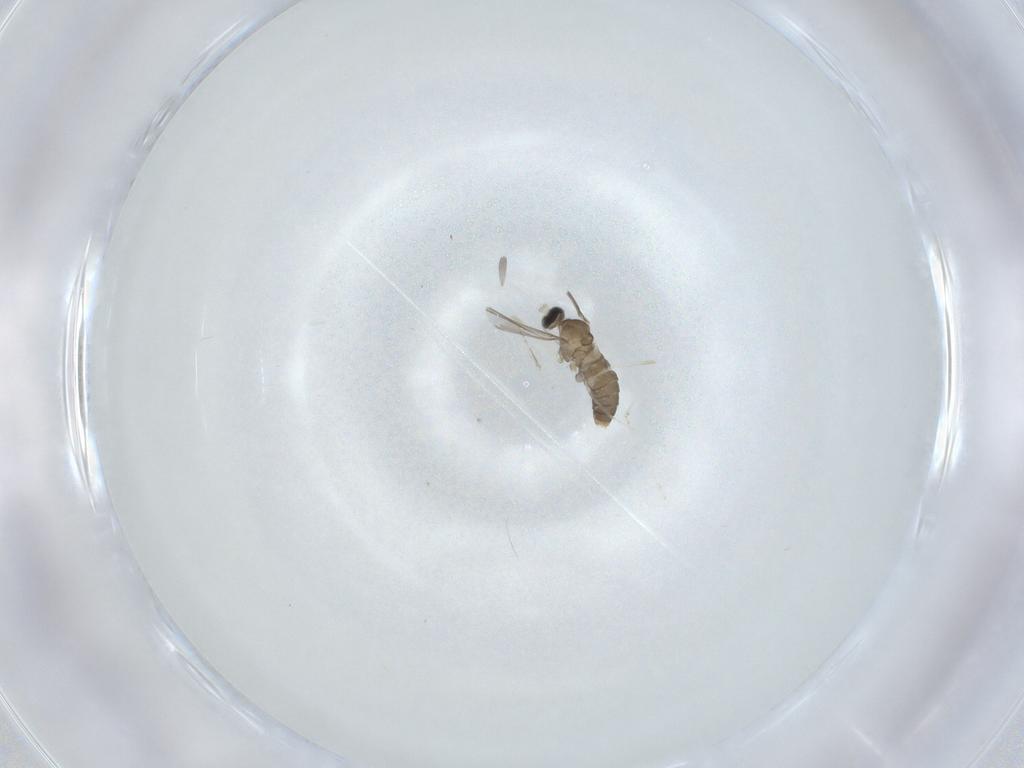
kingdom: Animalia
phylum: Arthropoda
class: Insecta
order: Diptera
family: Cecidomyiidae
